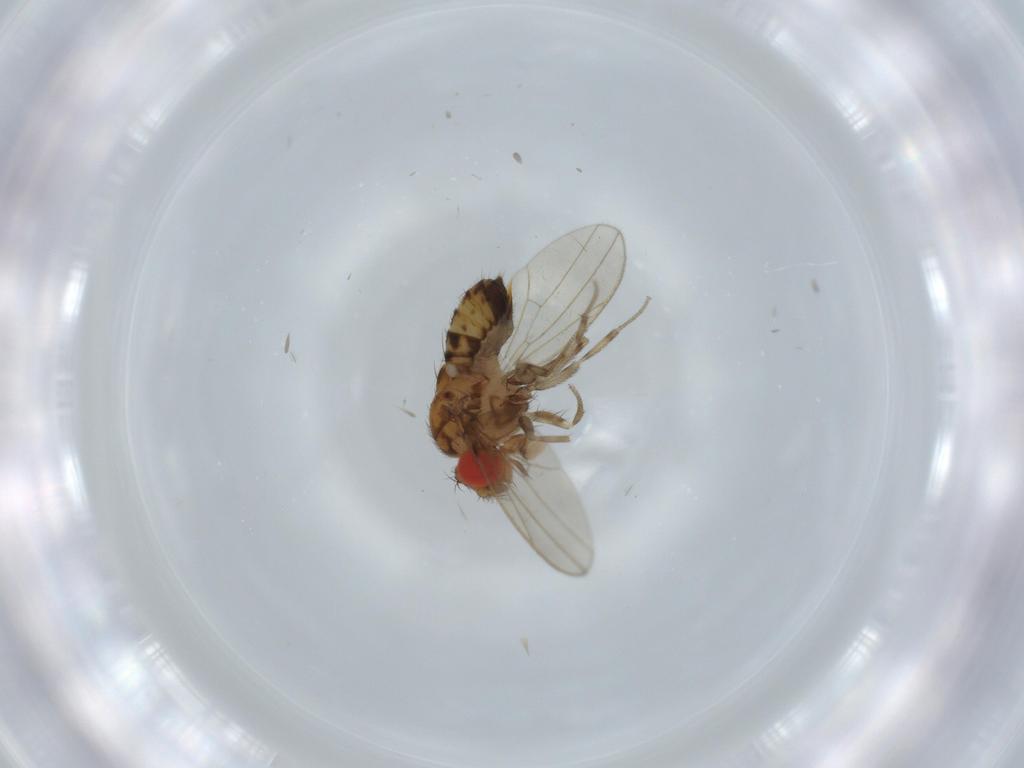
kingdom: Animalia
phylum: Arthropoda
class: Insecta
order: Diptera
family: Drosophilidae
